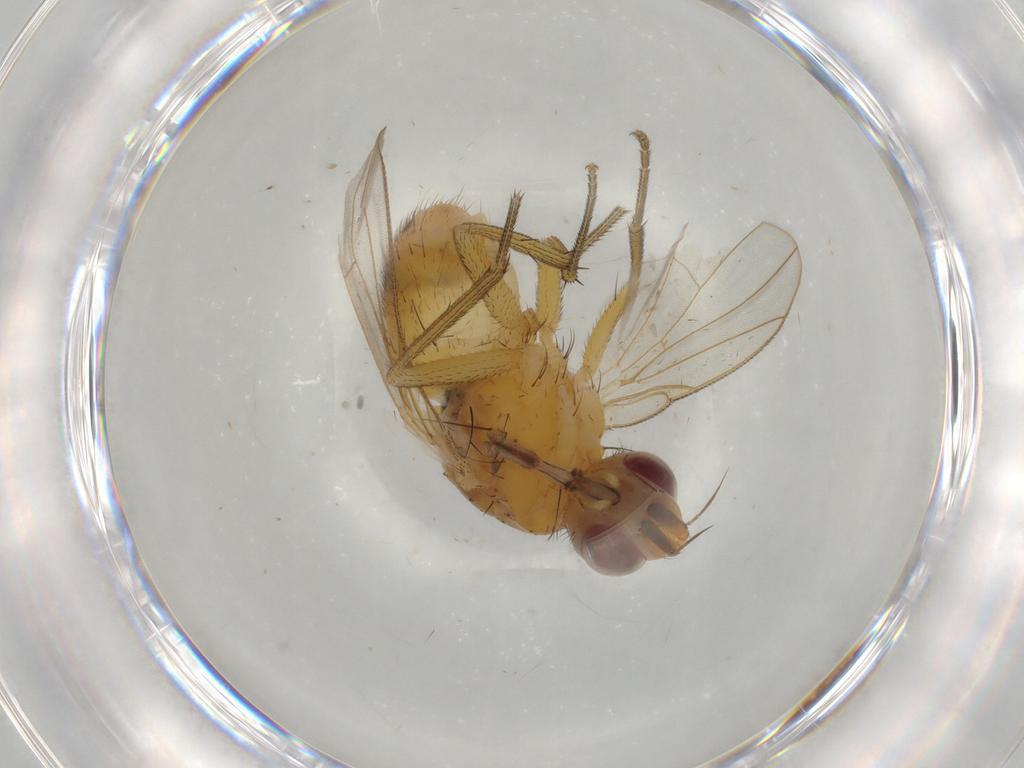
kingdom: Animalia
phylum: Arthropoda
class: Insecta
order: Diptera
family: Muscidae
